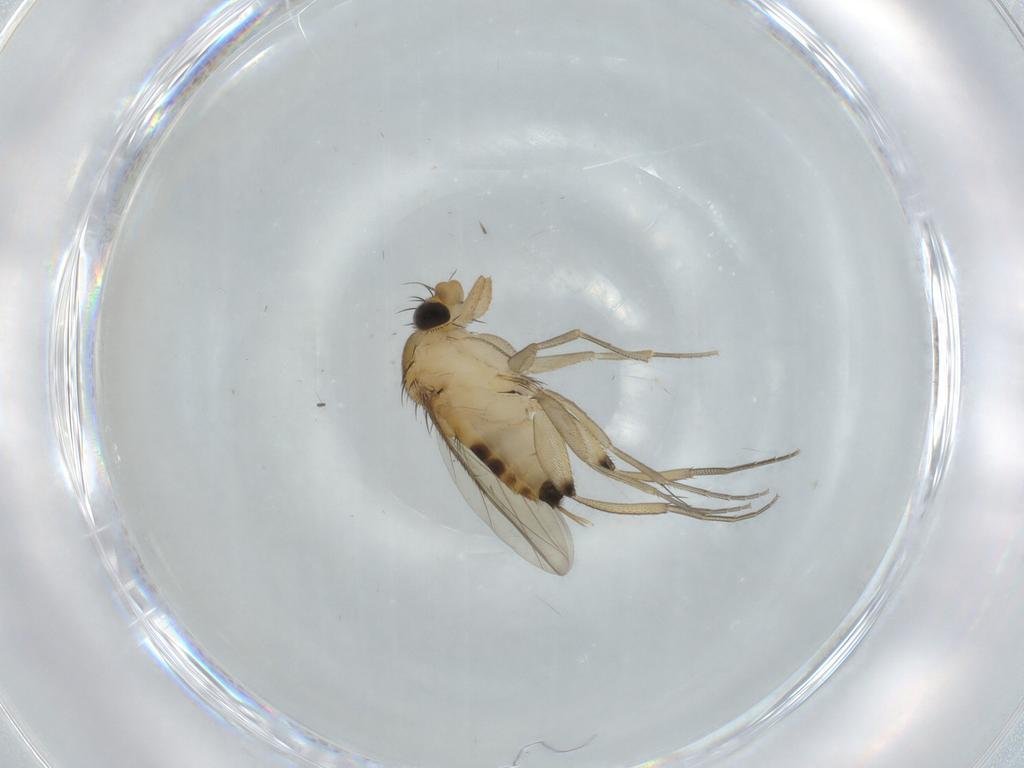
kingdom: Animalia
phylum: Arthropoda
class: Insecta
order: Diptera
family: Phoridae
